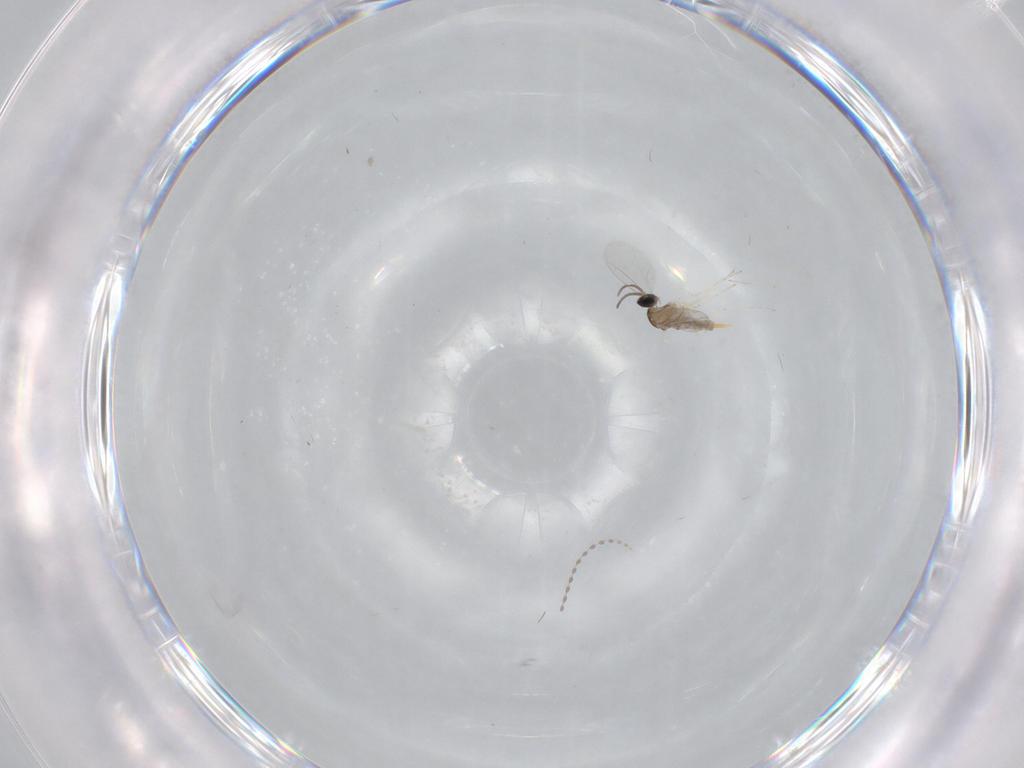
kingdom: Animalia
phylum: Arthropoda
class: Insecta
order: Diptera
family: Cecidomyiidae
